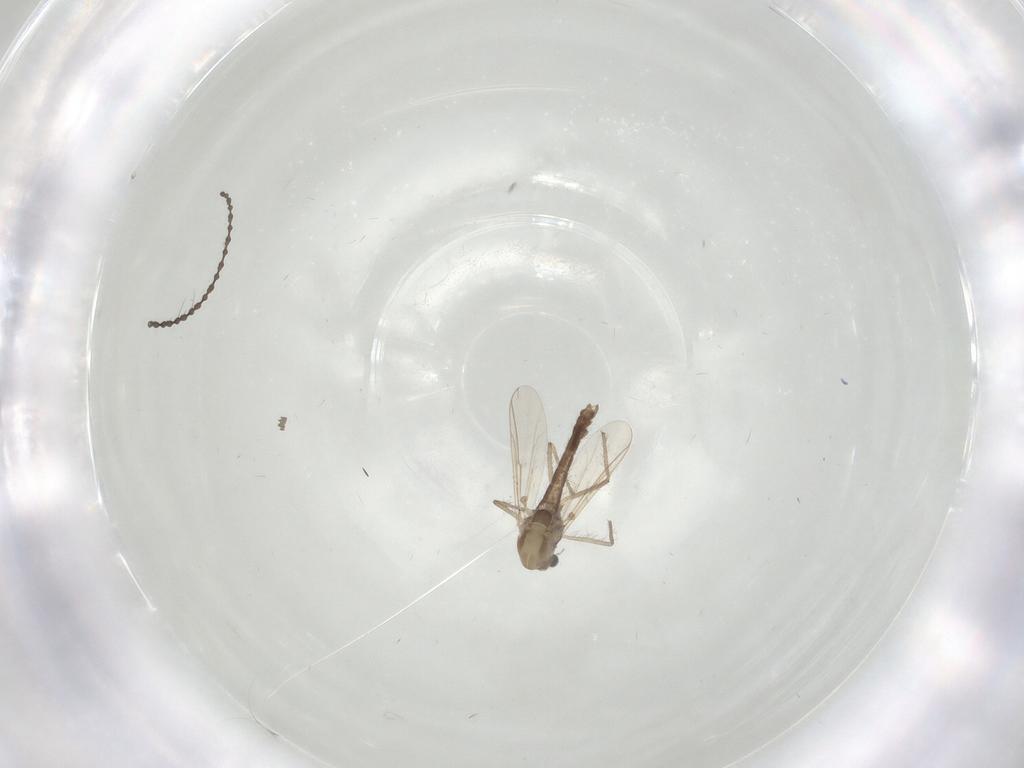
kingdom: Animalia
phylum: Arthropoda
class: Insecta
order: Diptera
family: Chironomidae
